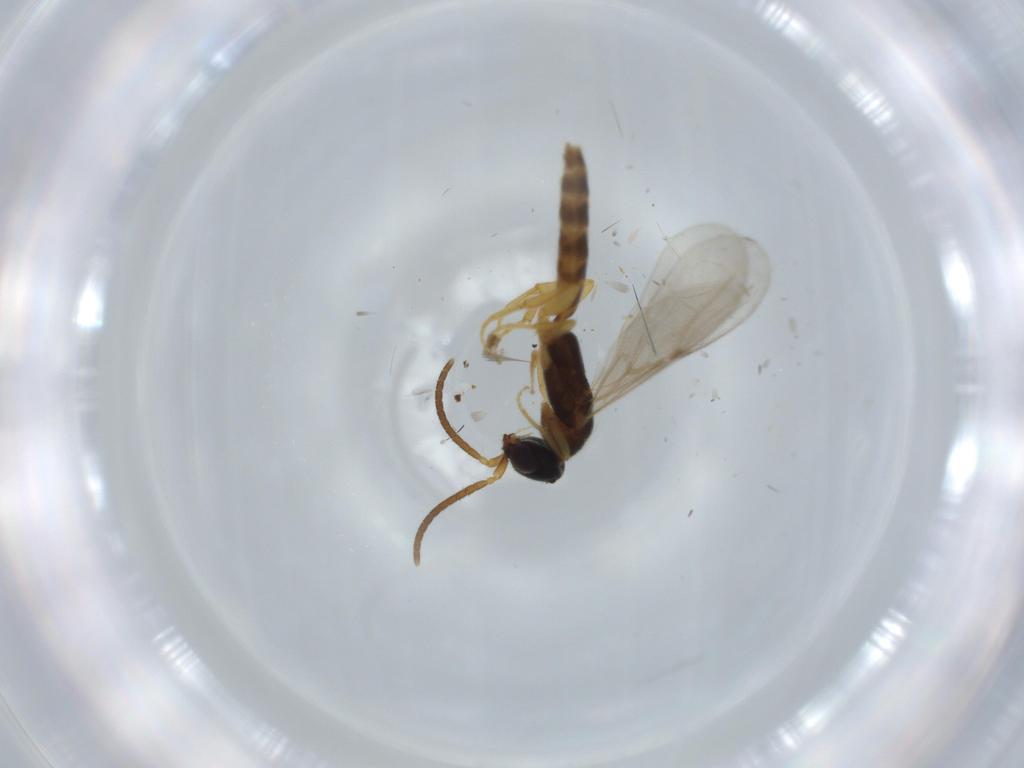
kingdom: Animalia
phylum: Arthropoda
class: Insecta
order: Hymenoptera
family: Bethylidae
